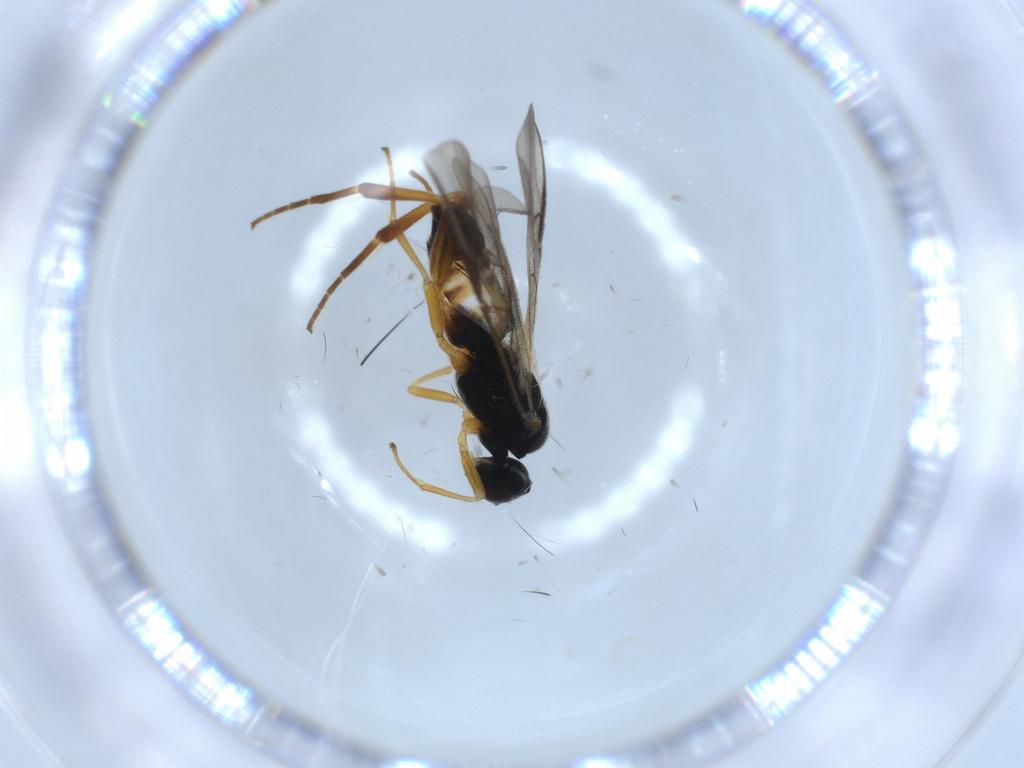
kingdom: Animalia
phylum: Arthropoda
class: Insecta
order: Hymenoptera
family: Braconidae
